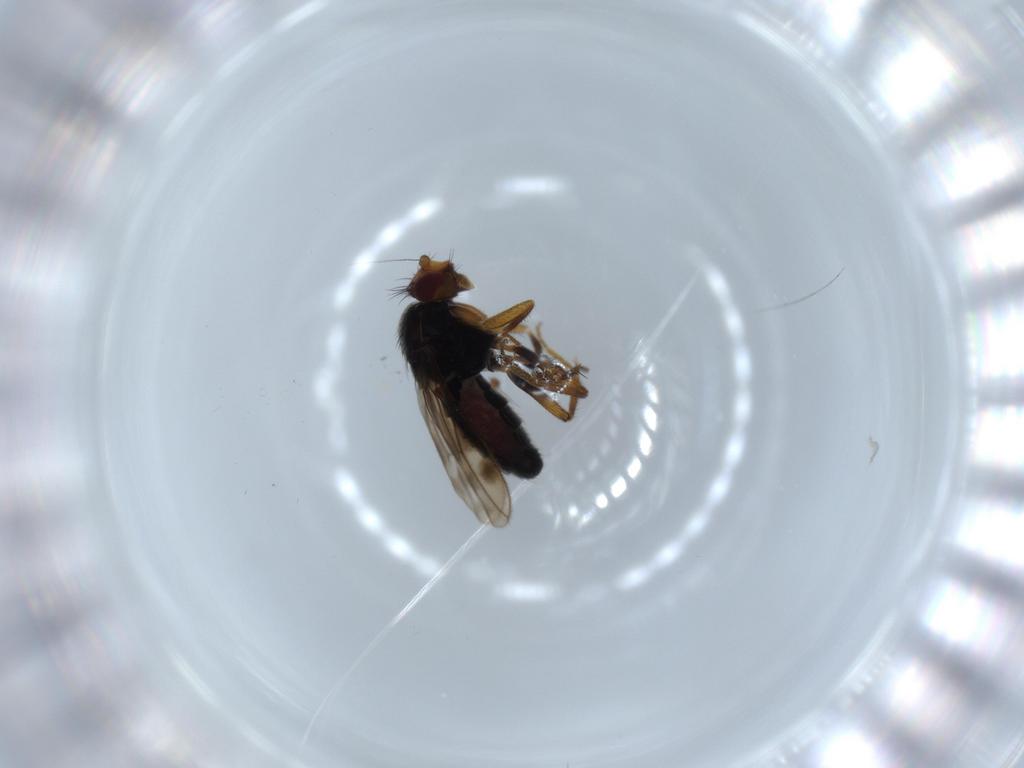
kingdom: Animalia
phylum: Arthropoda
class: Insecta
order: Diptera
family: Sphaeroceridae
